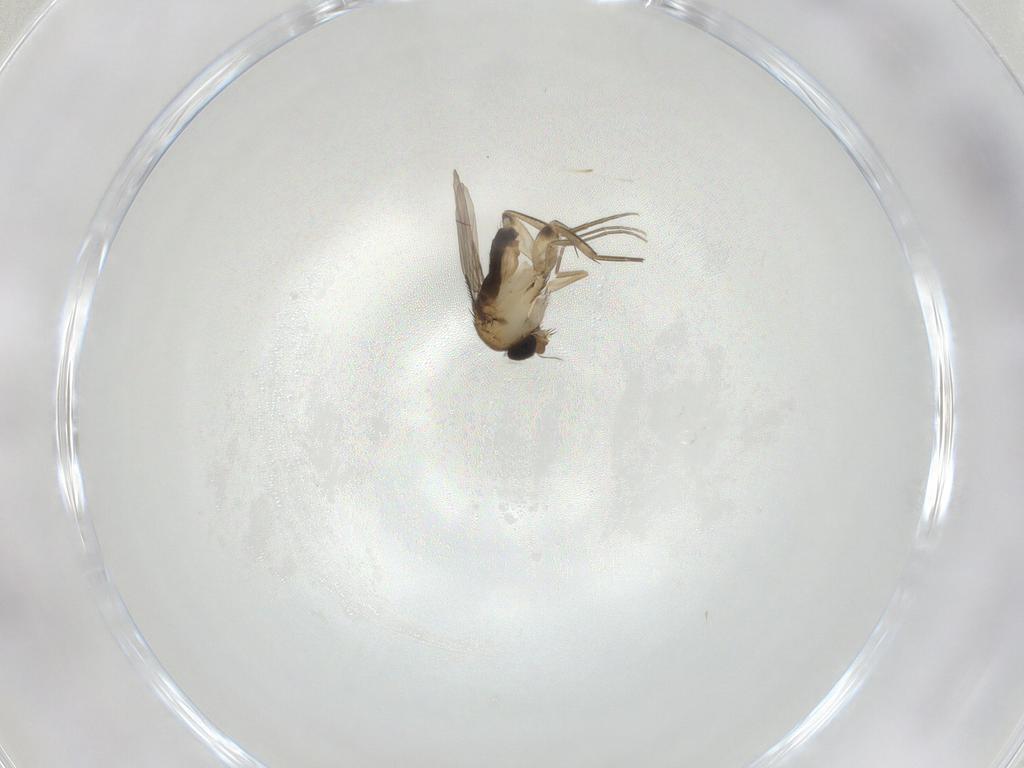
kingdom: Animalia
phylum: Arthropoda
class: Insecta
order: Diptera
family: Phoridae
